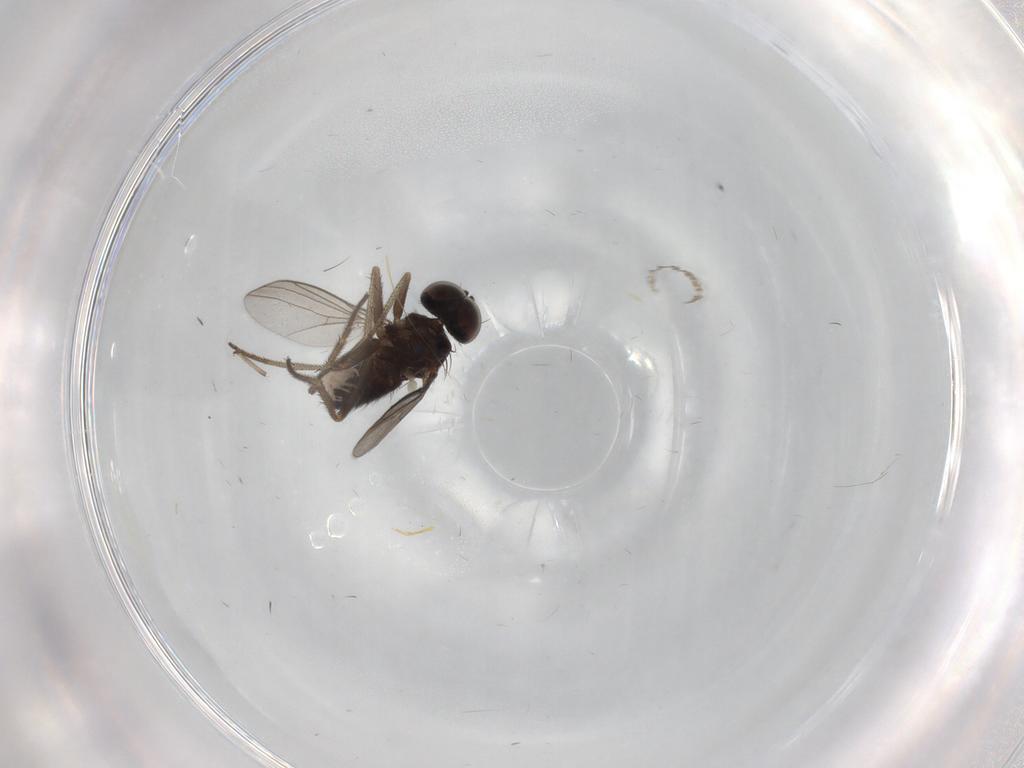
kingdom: Animalia
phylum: Arthropoda
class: Insecta
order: Diptera
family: Dolichopodidae
